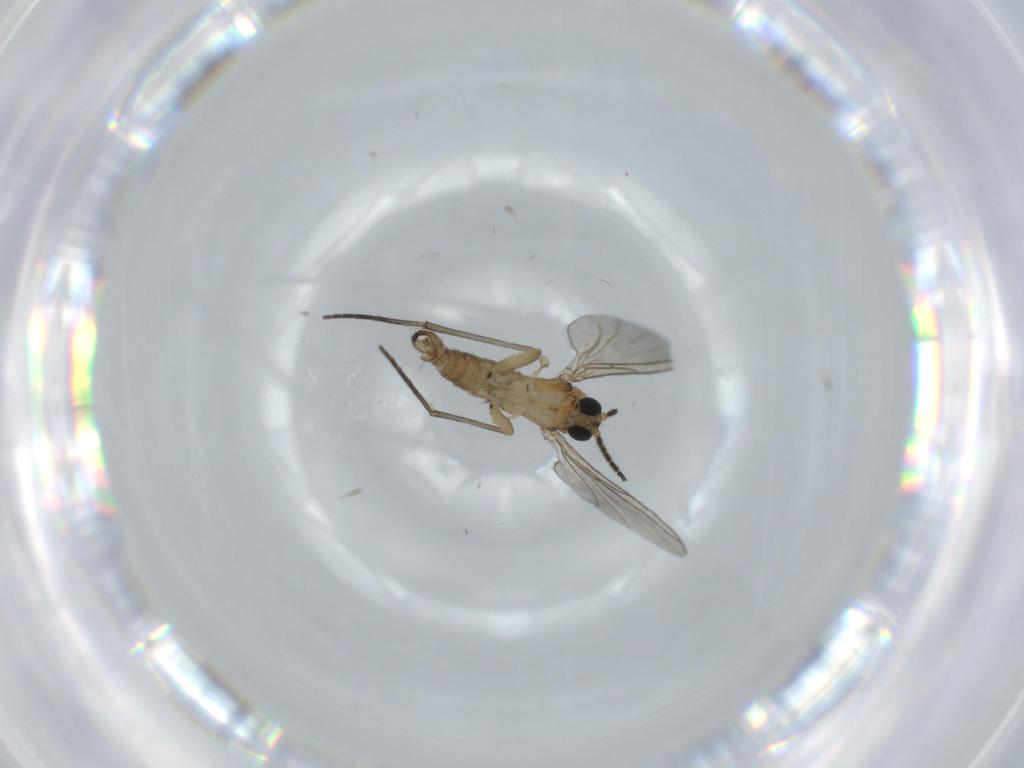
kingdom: Animalia
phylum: Arthropoda
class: Insecta
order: Diptera
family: Sciaridae
